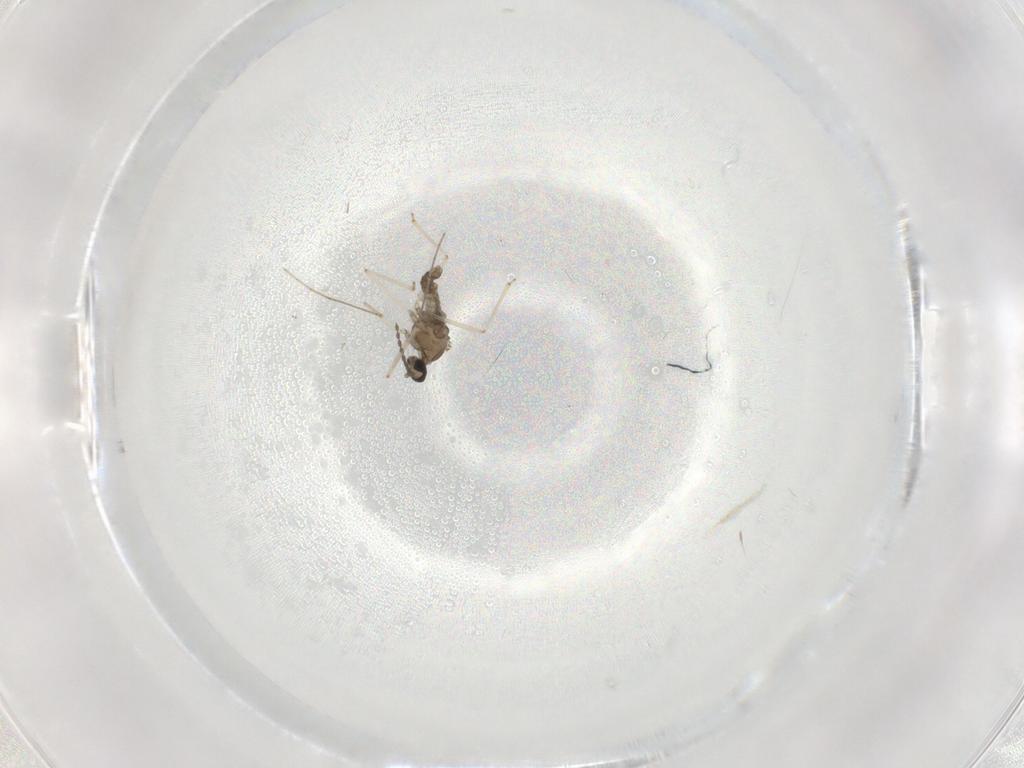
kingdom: Animalia
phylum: Arthropoda
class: Insecta
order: Diptera
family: Cecidomyiidae
